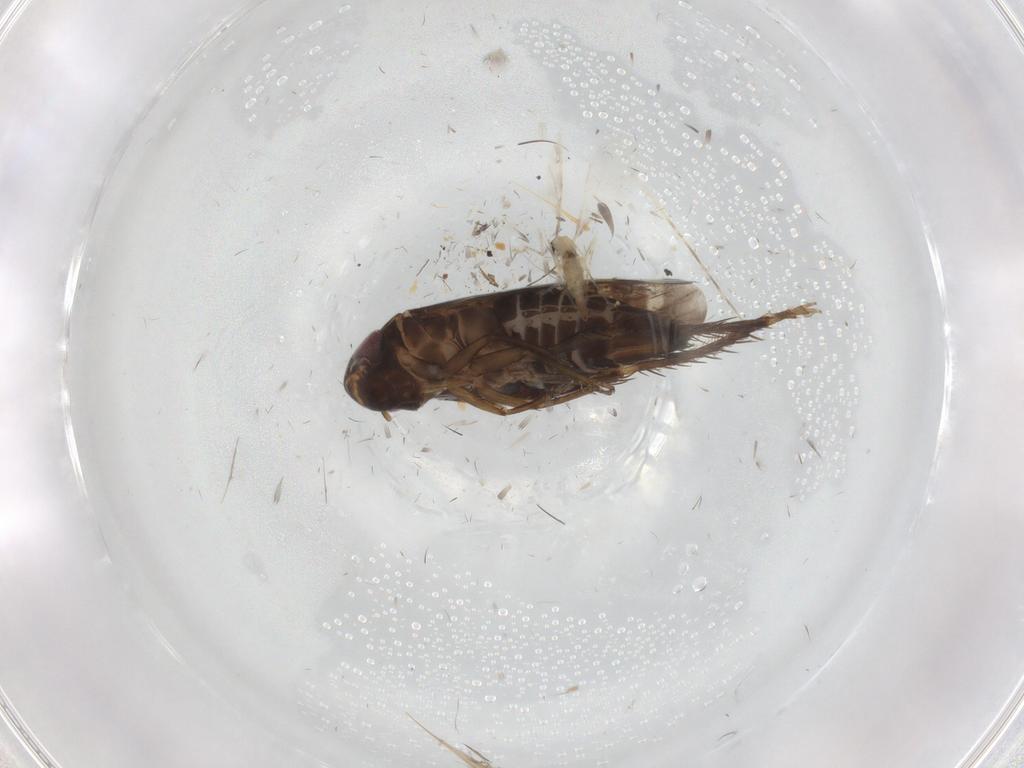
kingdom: Animalia
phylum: Arthropoda
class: Insecta
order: Hemiptera
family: Cicadellidae
